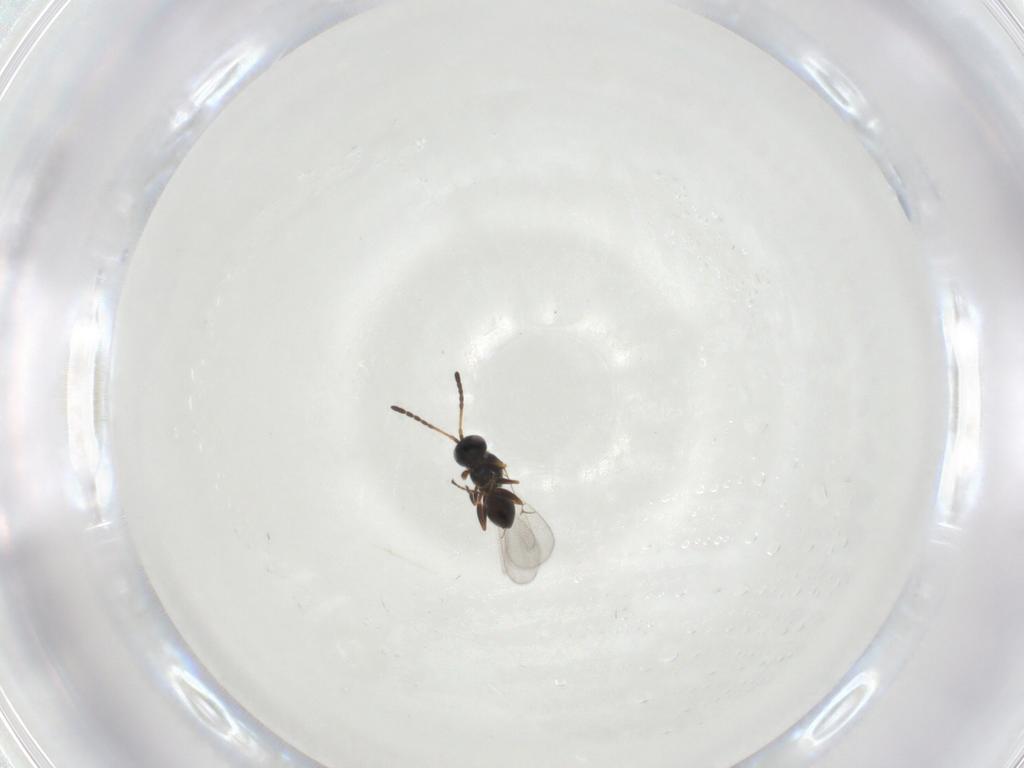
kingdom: Animalia
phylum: Arthropoda
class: Insecta
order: Hymenoptera
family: Figitidae
